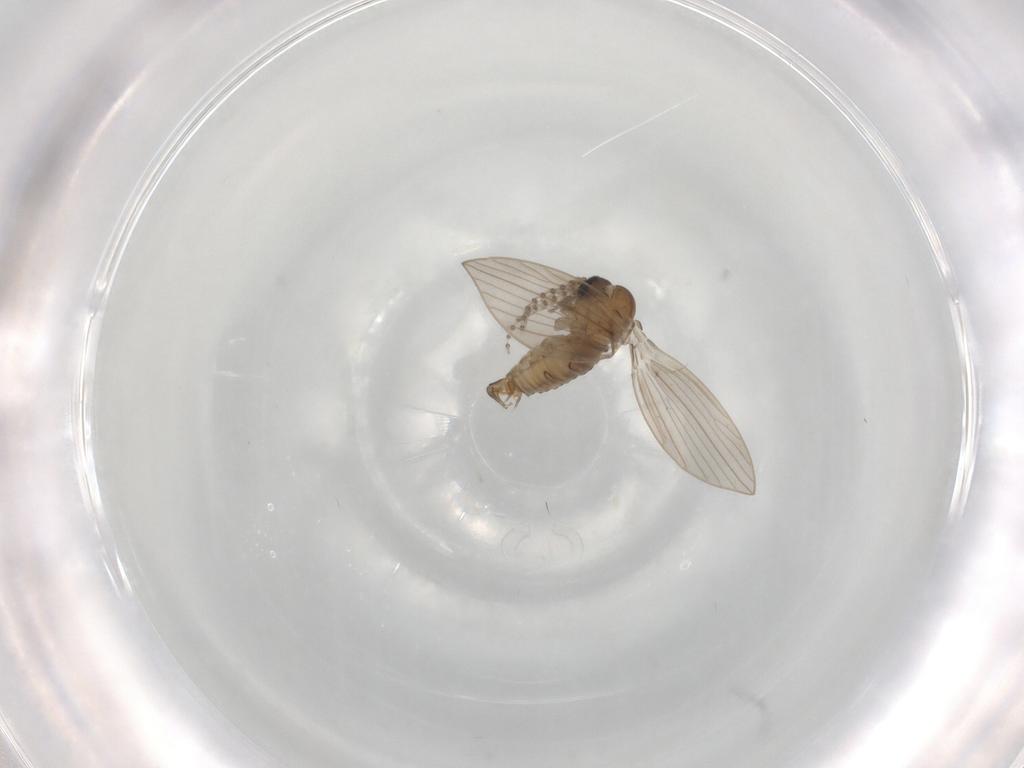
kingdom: Animalia
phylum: Arthropoda
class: Insecta
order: Diptera
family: Psychodidae
